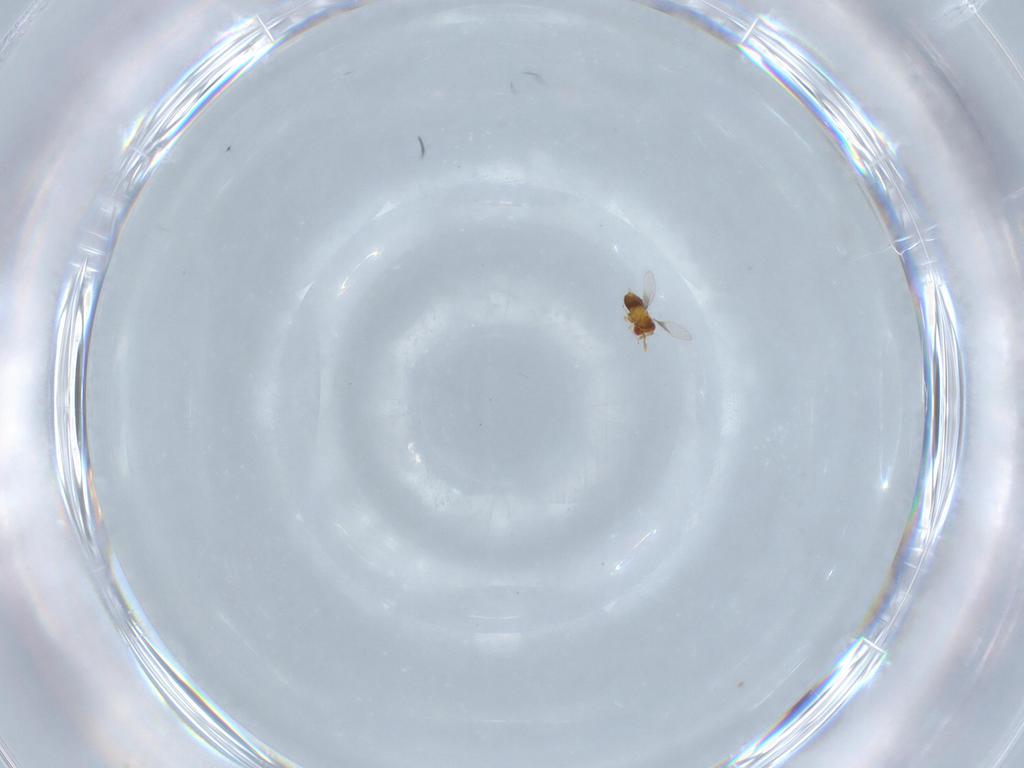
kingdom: Animalia
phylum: Arthropoda
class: Insecta
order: Hymenoptera
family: Trichogrammatidae
